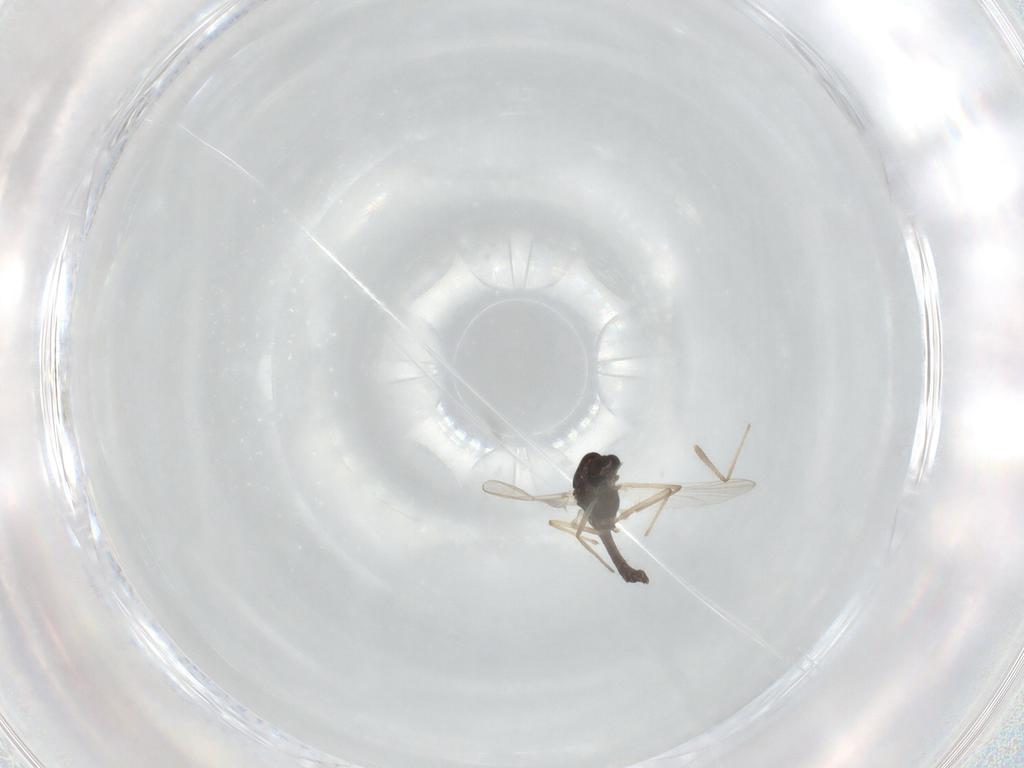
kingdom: Animalia
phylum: Arthropoda
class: Insecta
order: Diptera
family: Chironomidae
